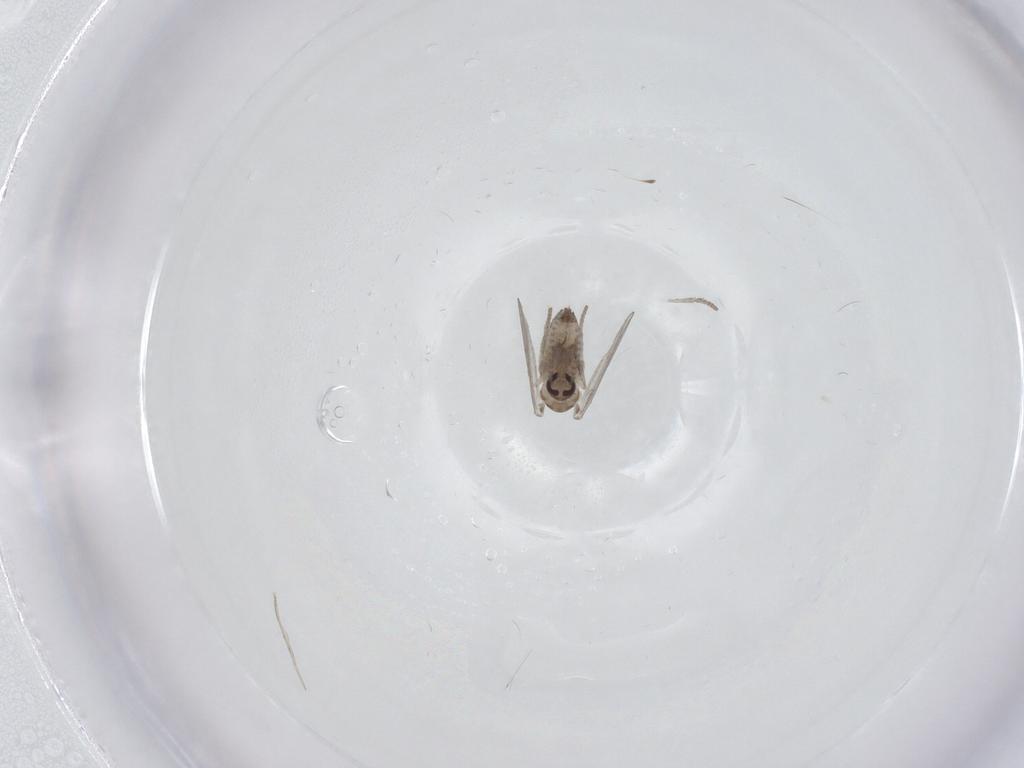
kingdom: Animalia
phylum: Arthropoda
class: Insecta
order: Diptera
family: Psychodidae
